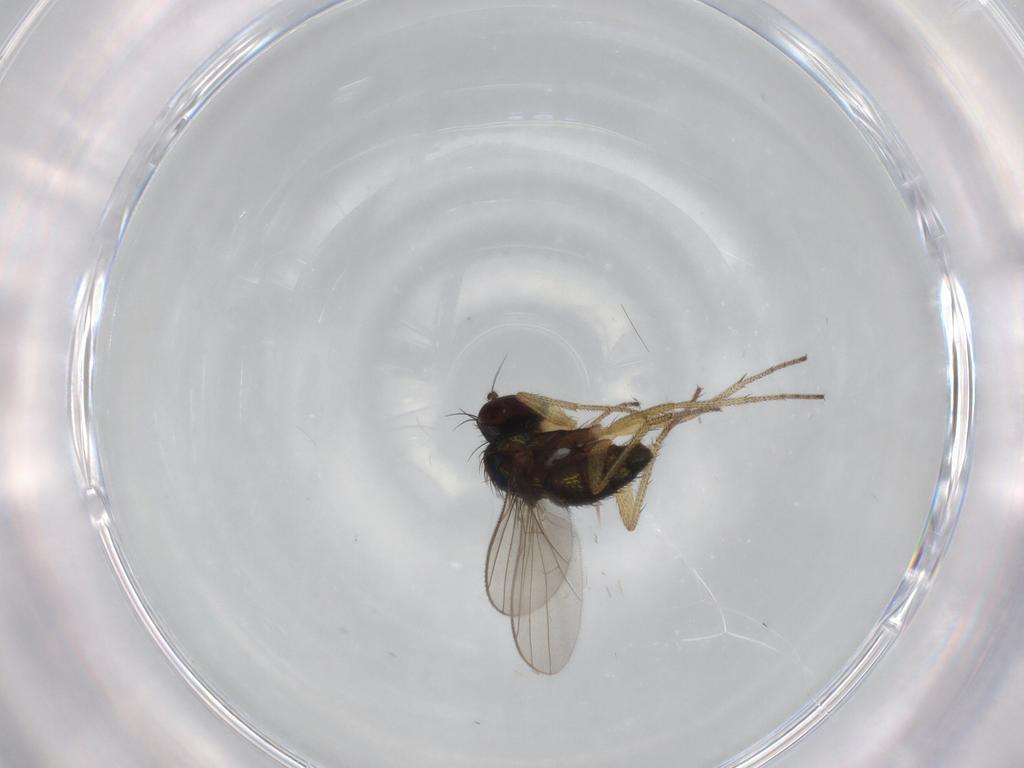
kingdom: Animalia
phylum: Arthropoda
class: Insecta
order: Diptera
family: Dolichopodidae
